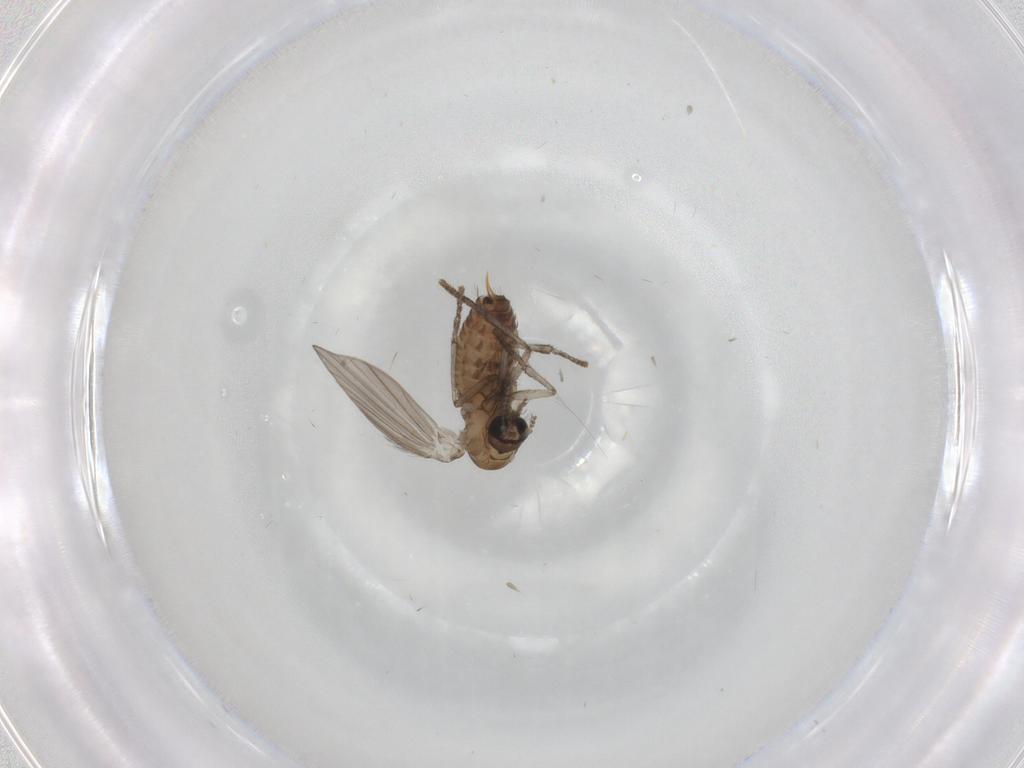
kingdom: Animalia
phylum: Arthropoda
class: Insecta
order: Diptera
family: Psychodidae
